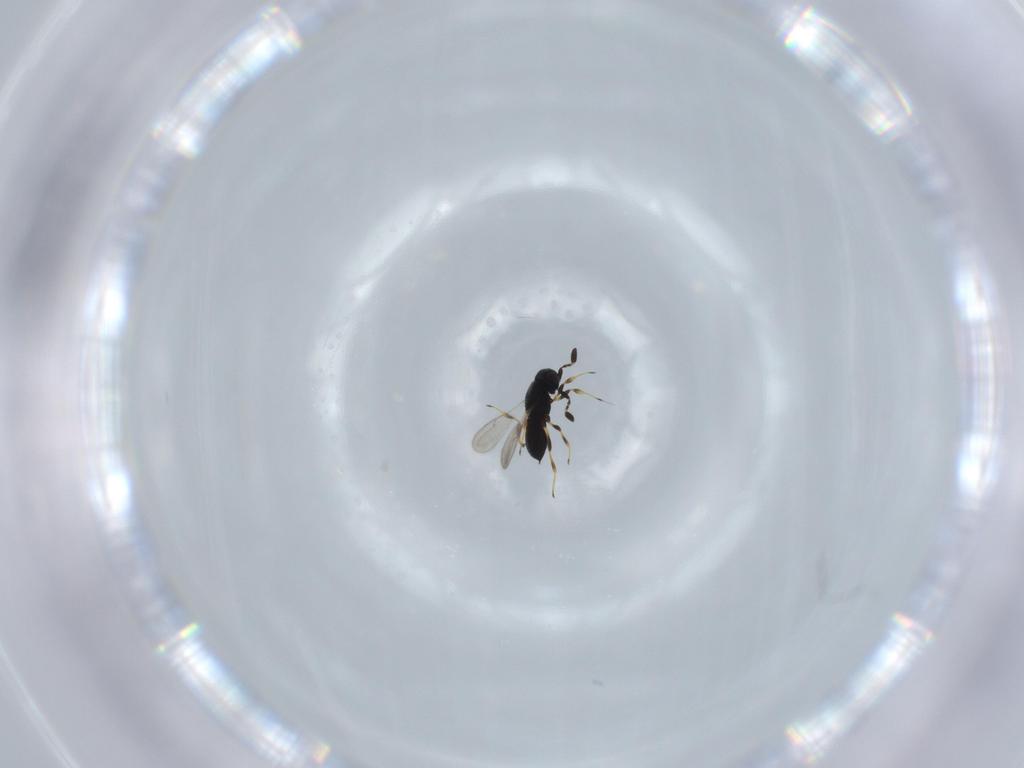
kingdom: Animalia
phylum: Arthropoda
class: Insecta
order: Hymenoptera
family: Scelionidae
